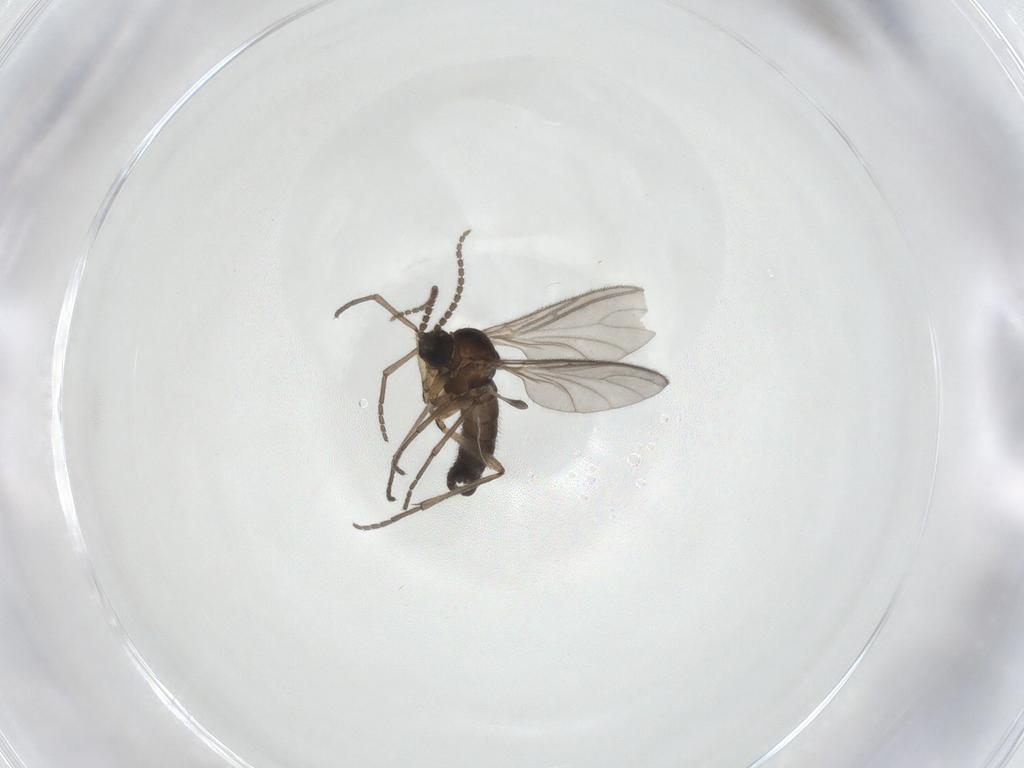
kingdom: Animalia
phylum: Arthropoda
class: Insecta
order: Diptera
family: Sciaridae
